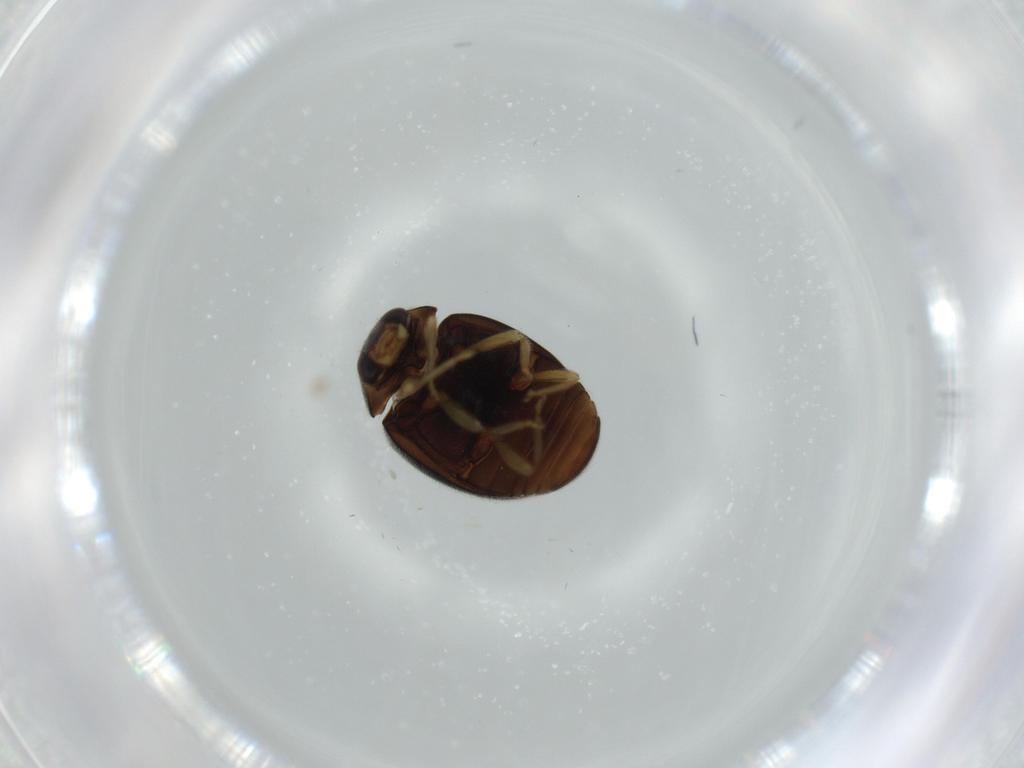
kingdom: Animalia
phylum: Arthropoda
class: Insecta
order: Coleoptera
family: Coccinellidae
